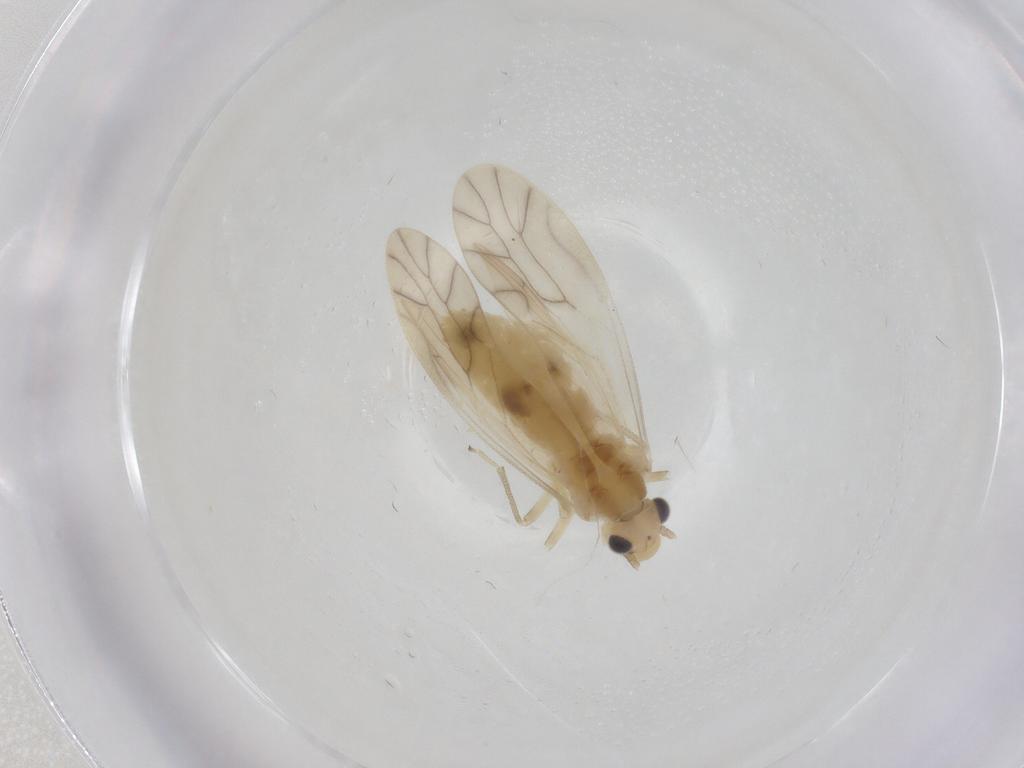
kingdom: Animalia
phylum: Arthropoda
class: Insecta
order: Psocodea
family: Caeciliusidae
